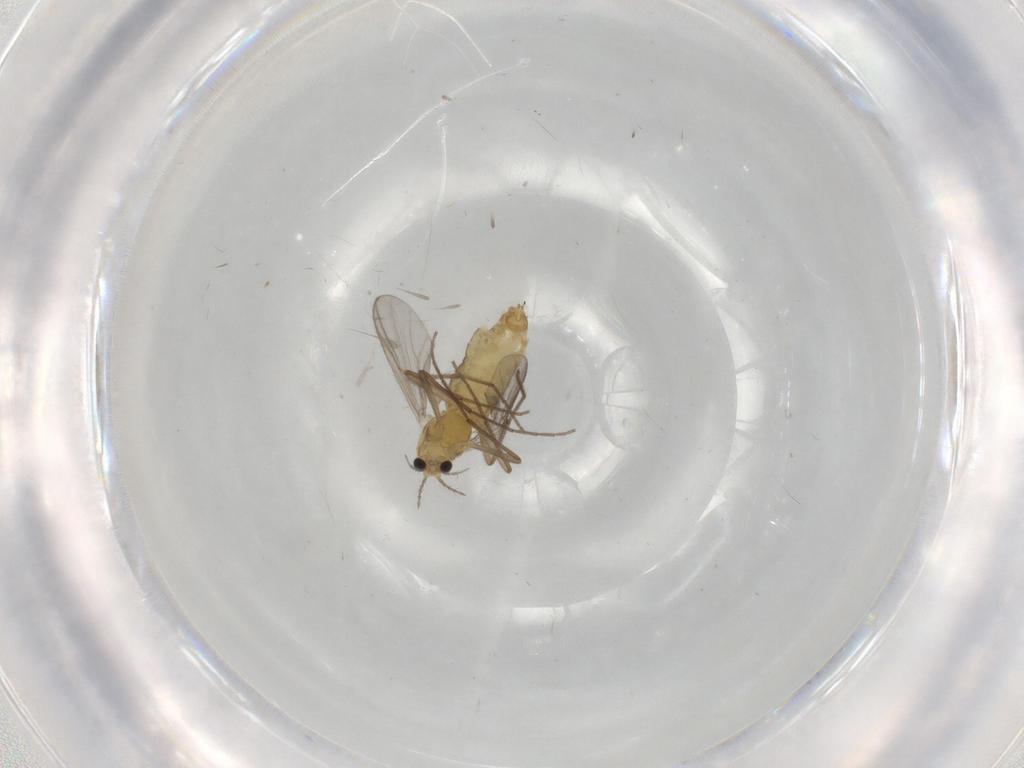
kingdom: Animalia
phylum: Arthropoda
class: Insecta
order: Diptera
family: Chironomidae
